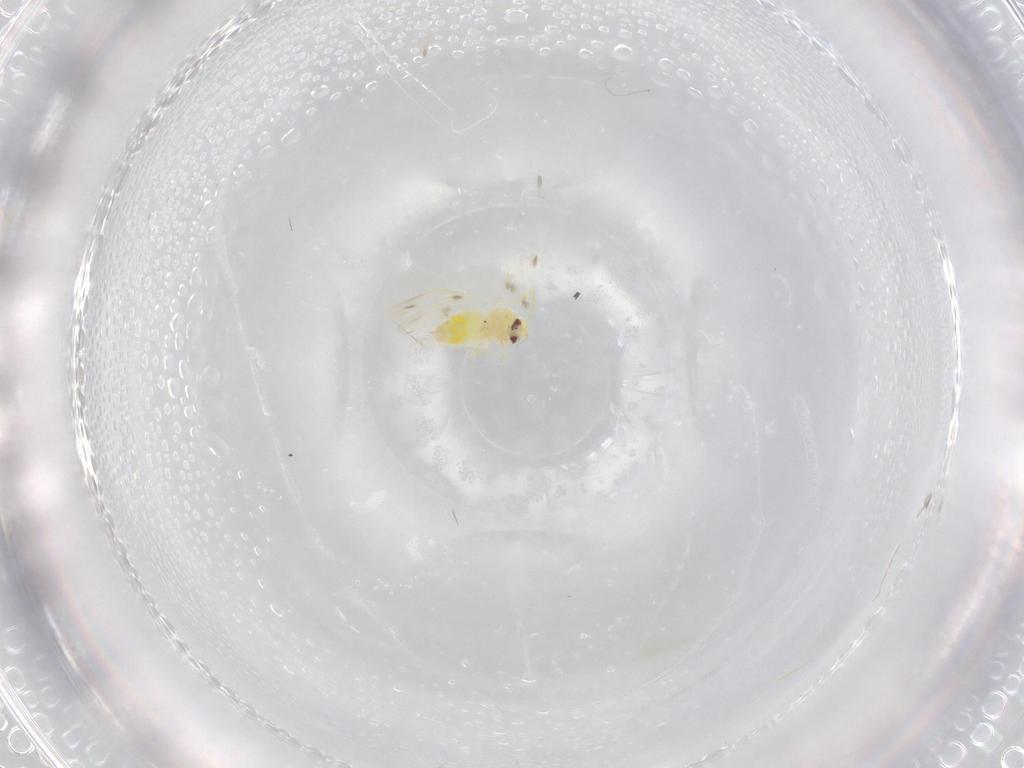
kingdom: Animalia
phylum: Arthropoda
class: Insecta
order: Hemiptera
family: Aleyrodidae
